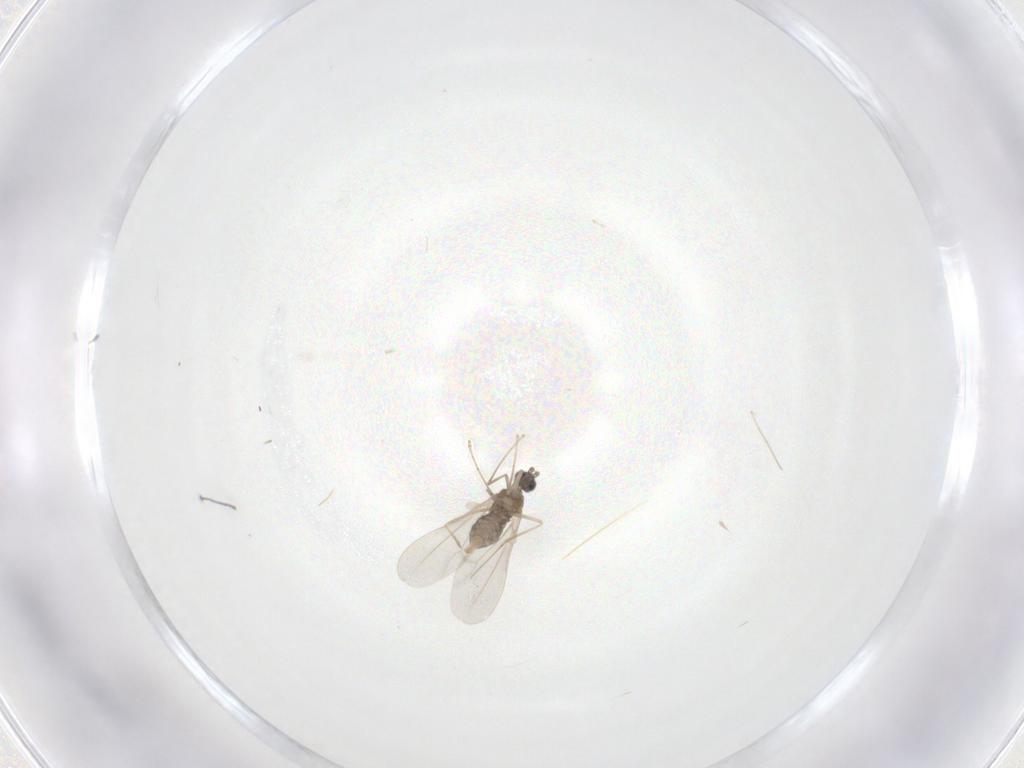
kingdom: Animalia
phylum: Arthropoda
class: Insecta
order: Diptera
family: Cecidomyiidae
